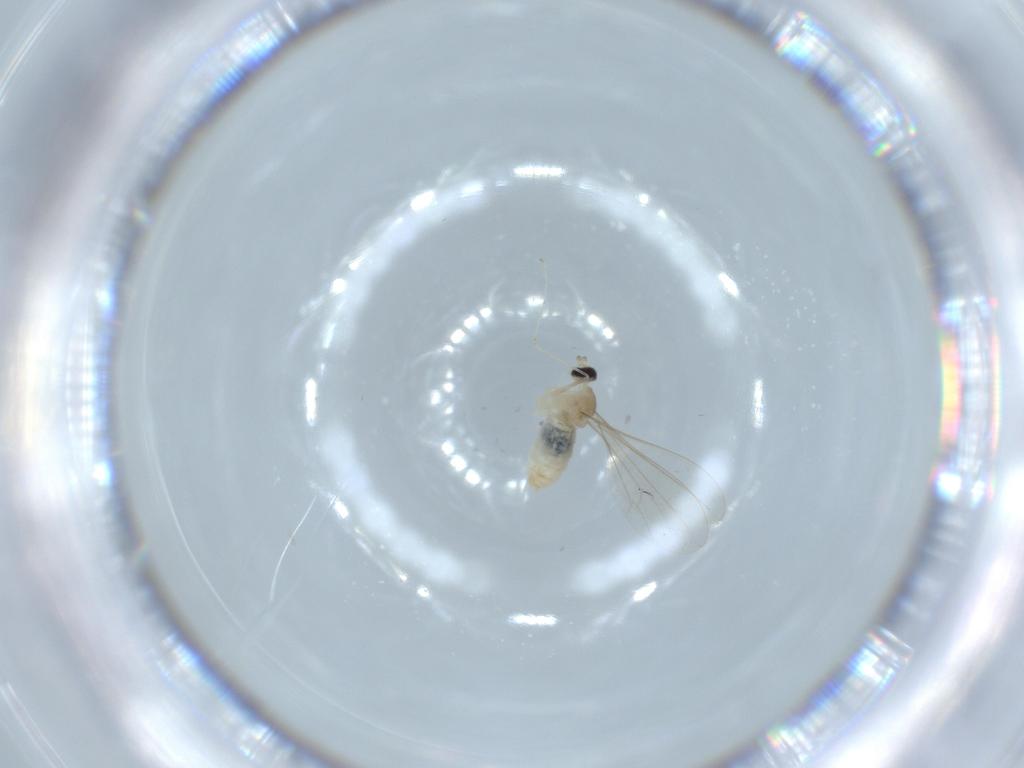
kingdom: Animalia
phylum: Arthropoda
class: Insecta
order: Diptera
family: Cecidomyiidae
